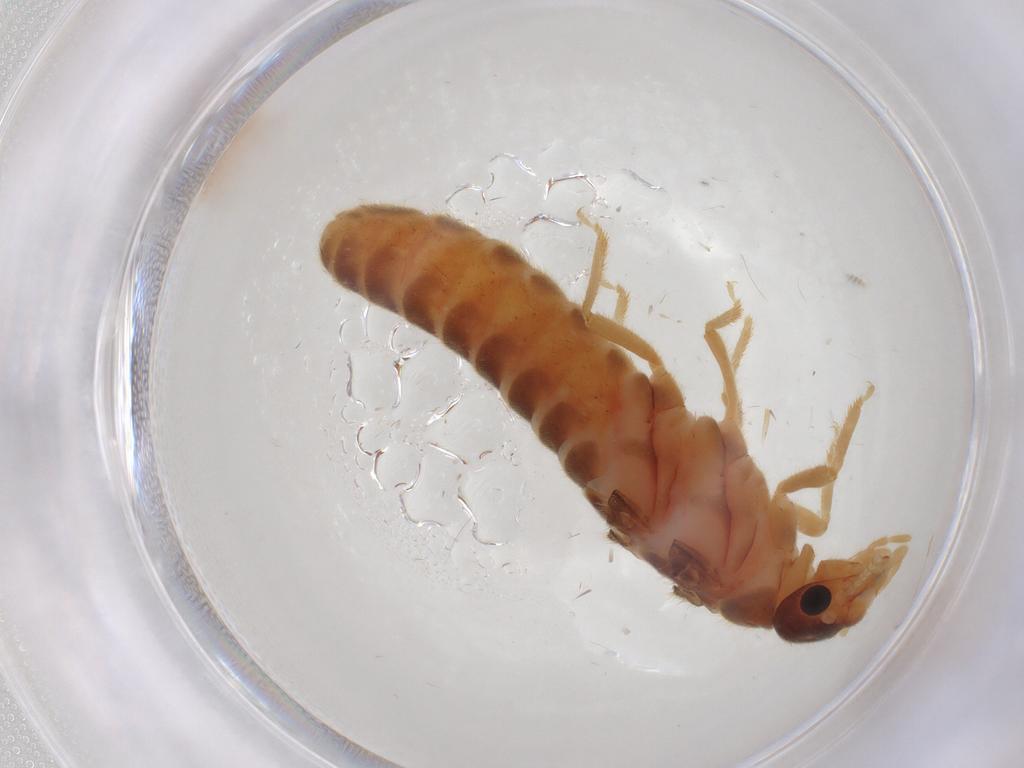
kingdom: Animalia
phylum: Arthropoda
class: Insecta
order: Blattodea
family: Termitidae
